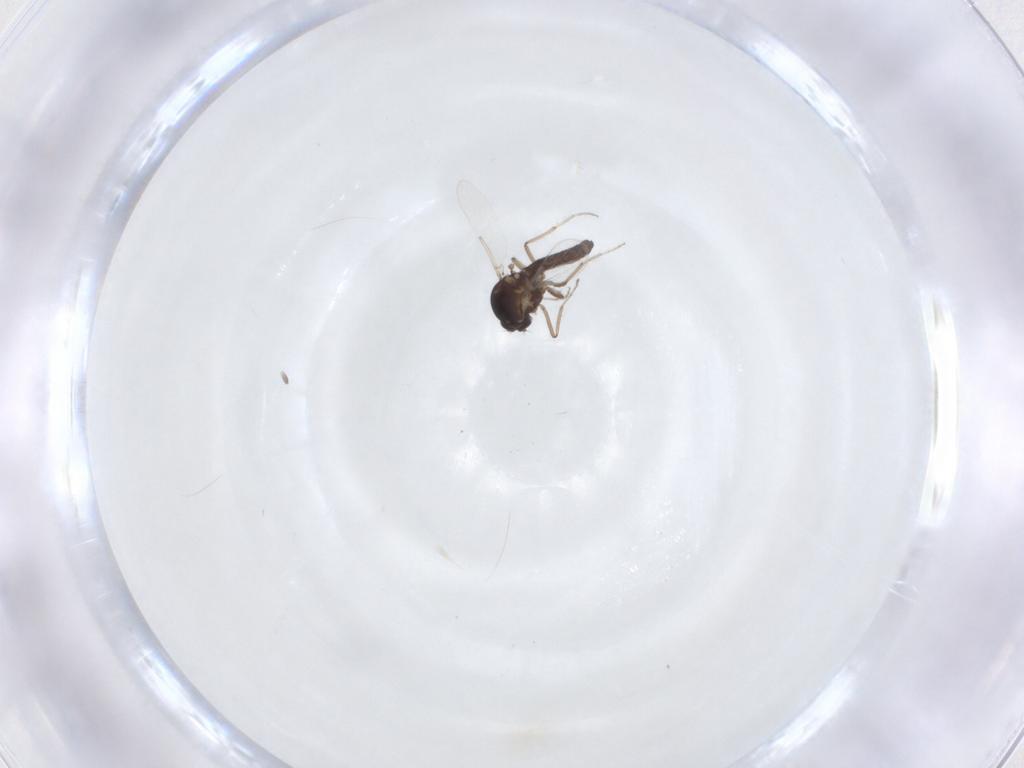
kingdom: Animalia
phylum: Arthropoda
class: Insecta
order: Diptera
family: Ceratopogonidae
